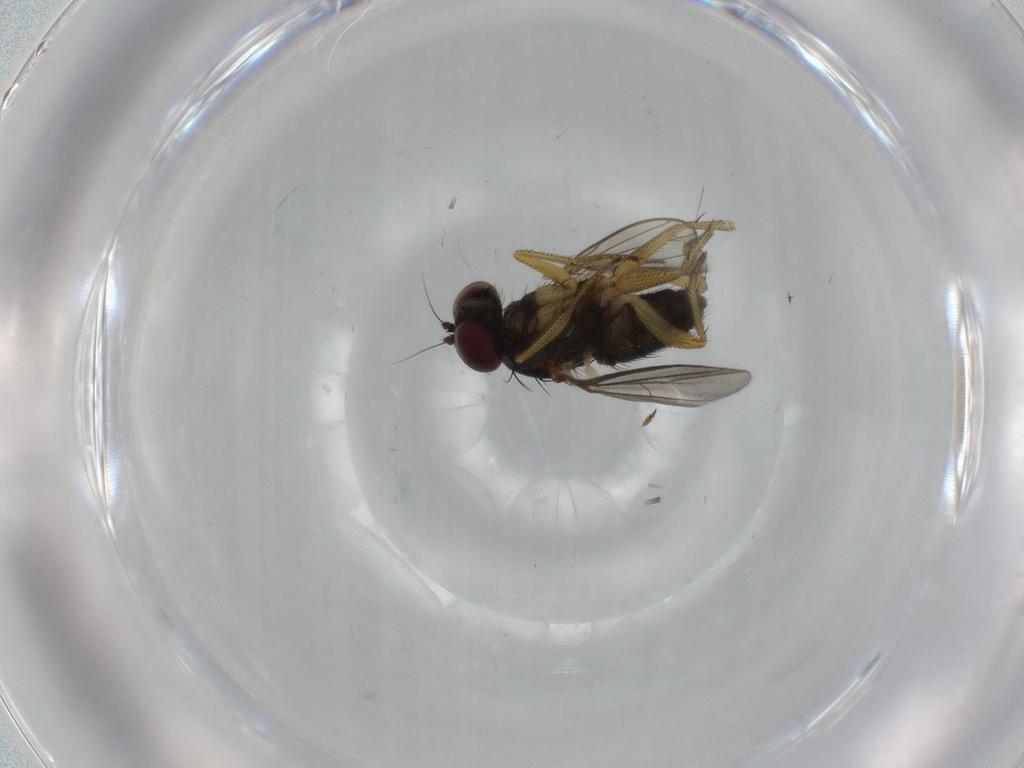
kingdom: Animalia
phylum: Arthropoda
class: Insecta
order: Diptera
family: Dolichopodidae
